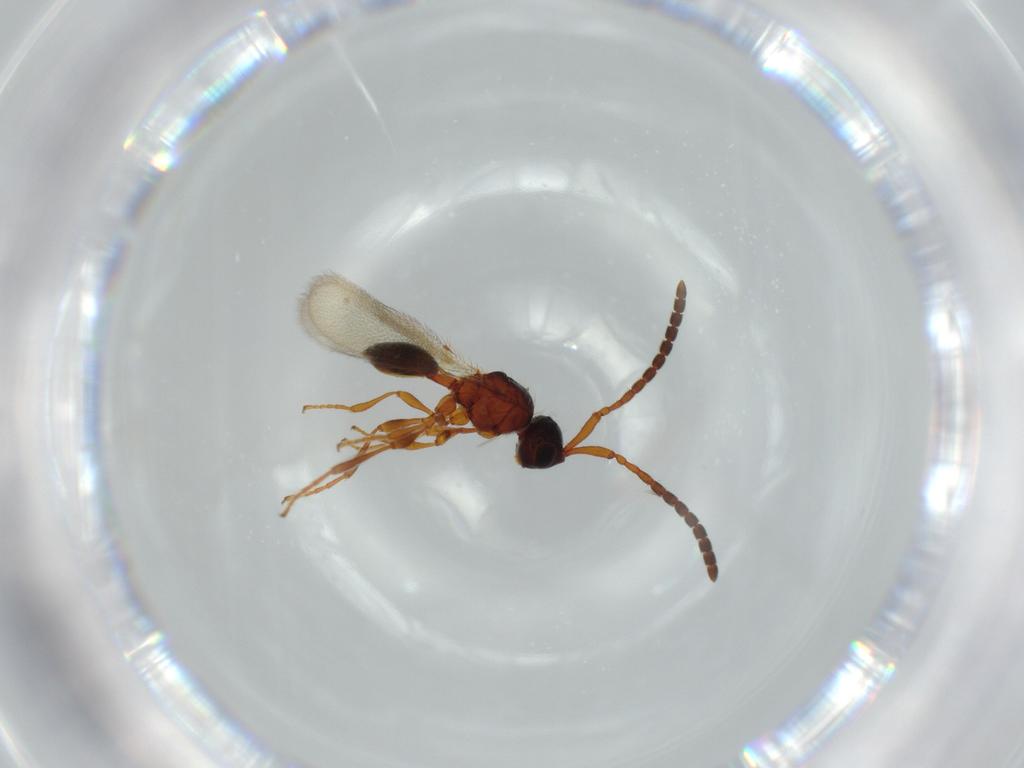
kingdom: Animalia
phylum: Arthropoda
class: Insecta
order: Hymenoptera
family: Diapriidae
